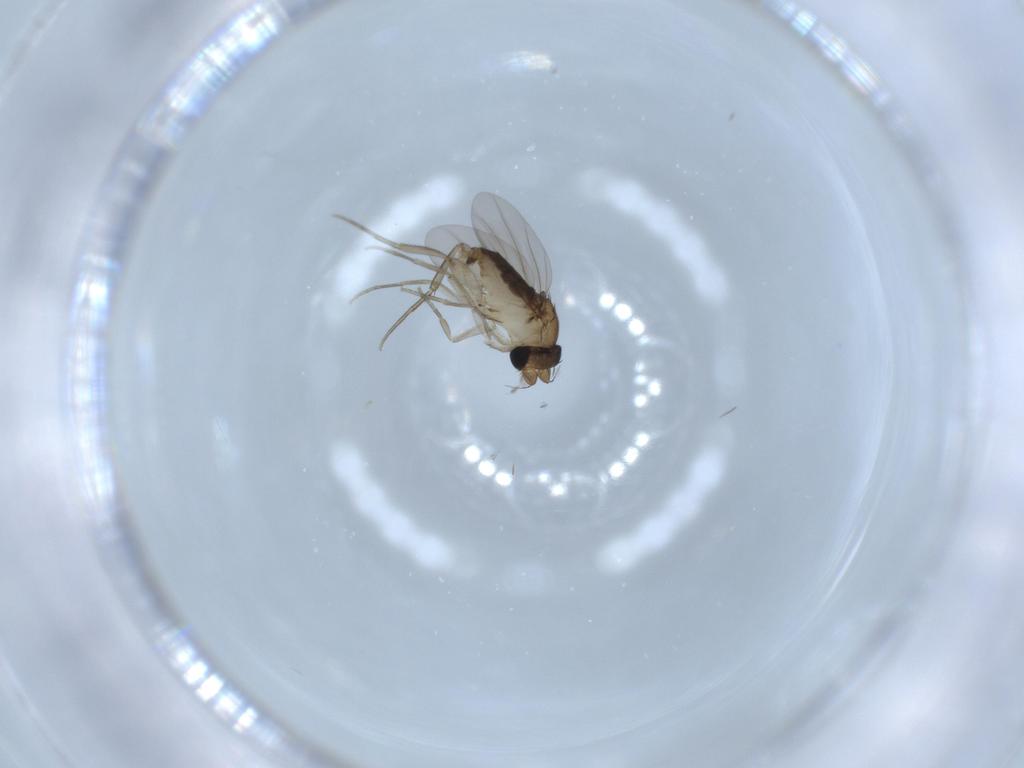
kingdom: Animalia
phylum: Arthropoda
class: Insecta
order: Diptera
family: Phoridae
